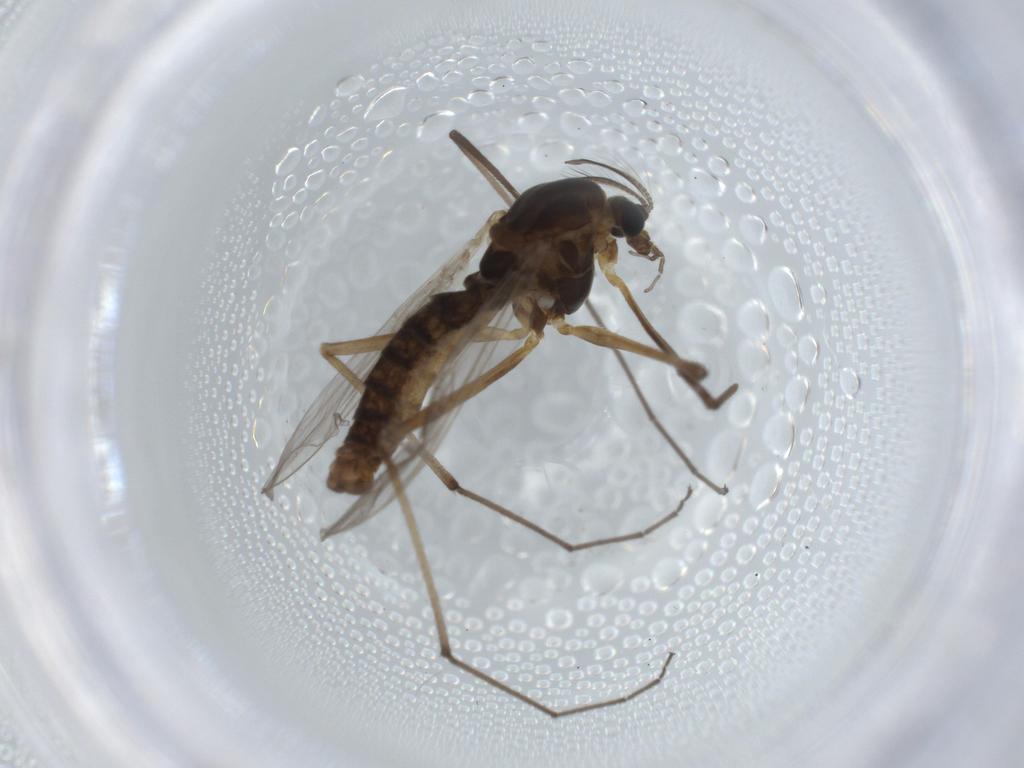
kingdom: Animalia
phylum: Arthropoda
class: Insecta
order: Diptera
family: Chironomidae
